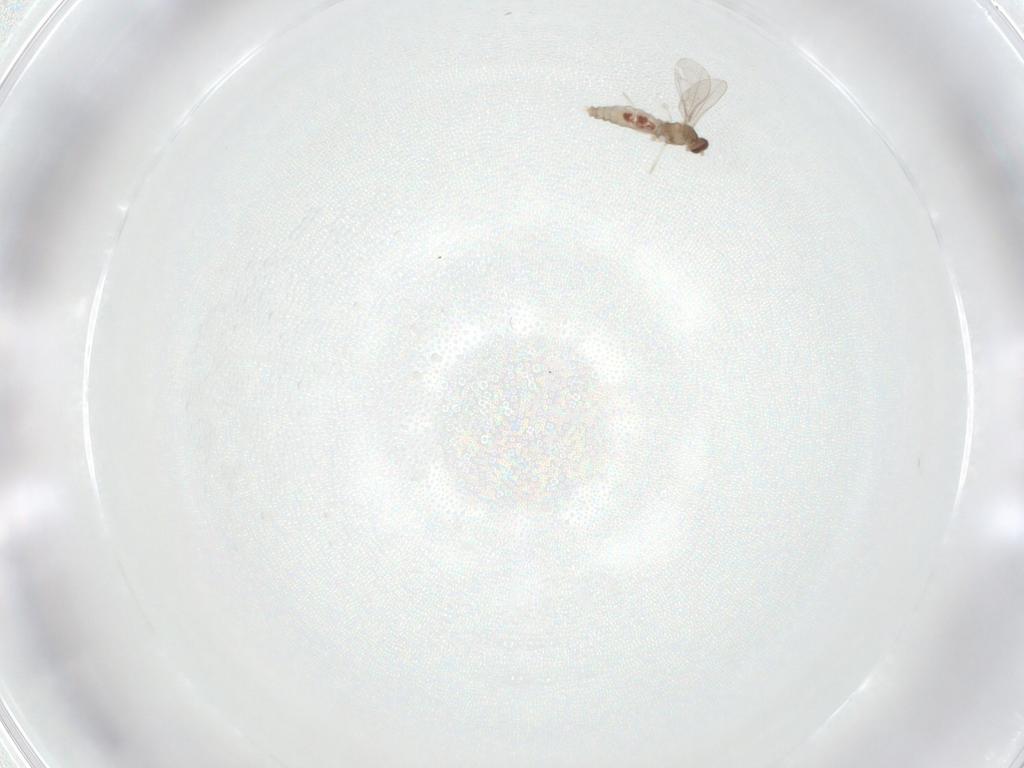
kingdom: Animalia
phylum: Arthropoda
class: Insecta
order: Diptera
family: Cecidomyiidae
